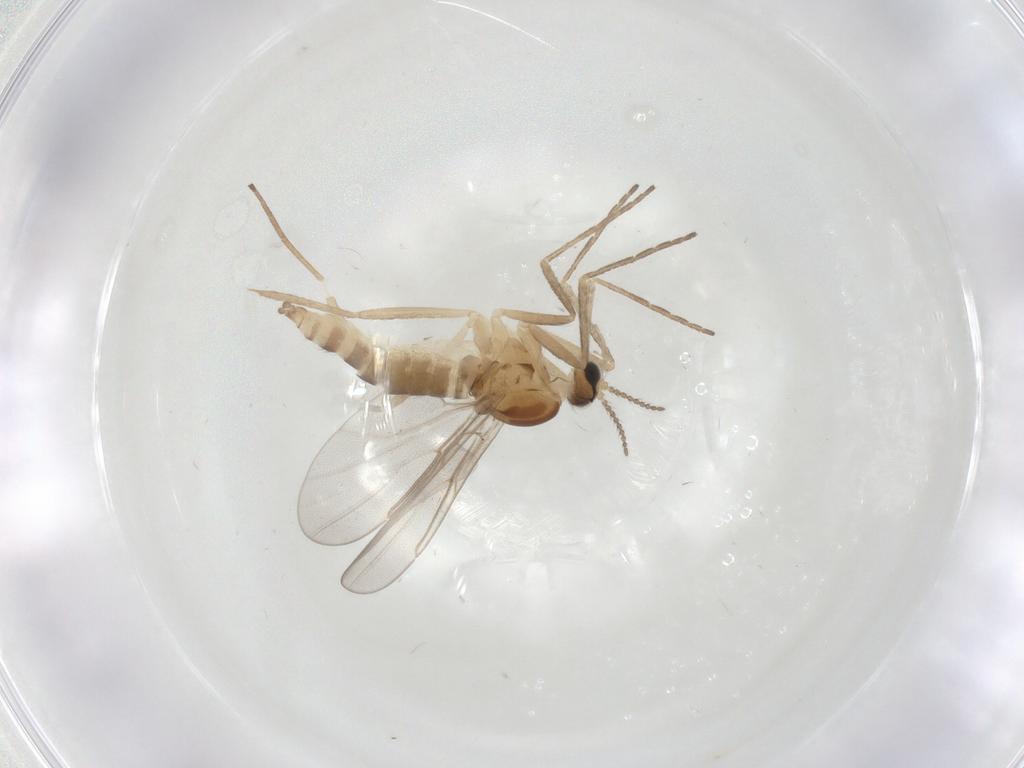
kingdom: Animalia
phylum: Arthropoda
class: Insecta
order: Diptera
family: Cecidomyiidae
